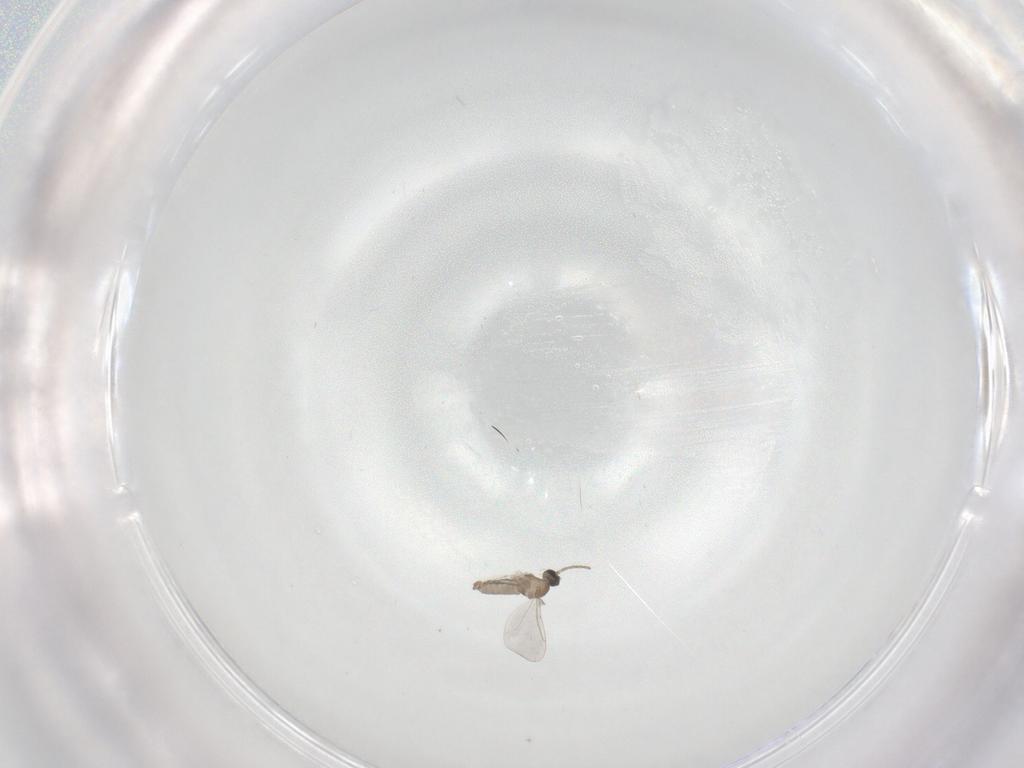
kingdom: Animalia
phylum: Arthropoda
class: Insecta
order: Diptera
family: Cecidomyiidae
